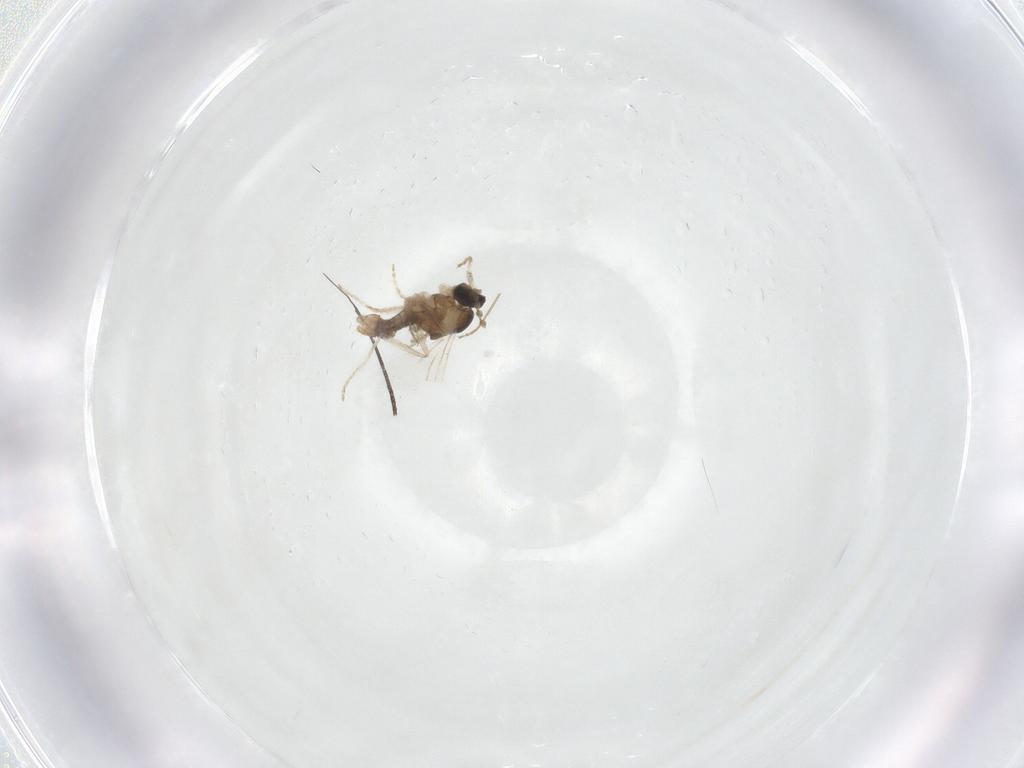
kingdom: Animalia
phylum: Arthropoda
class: Insecta
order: Diptera
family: Cecidomyiidae
